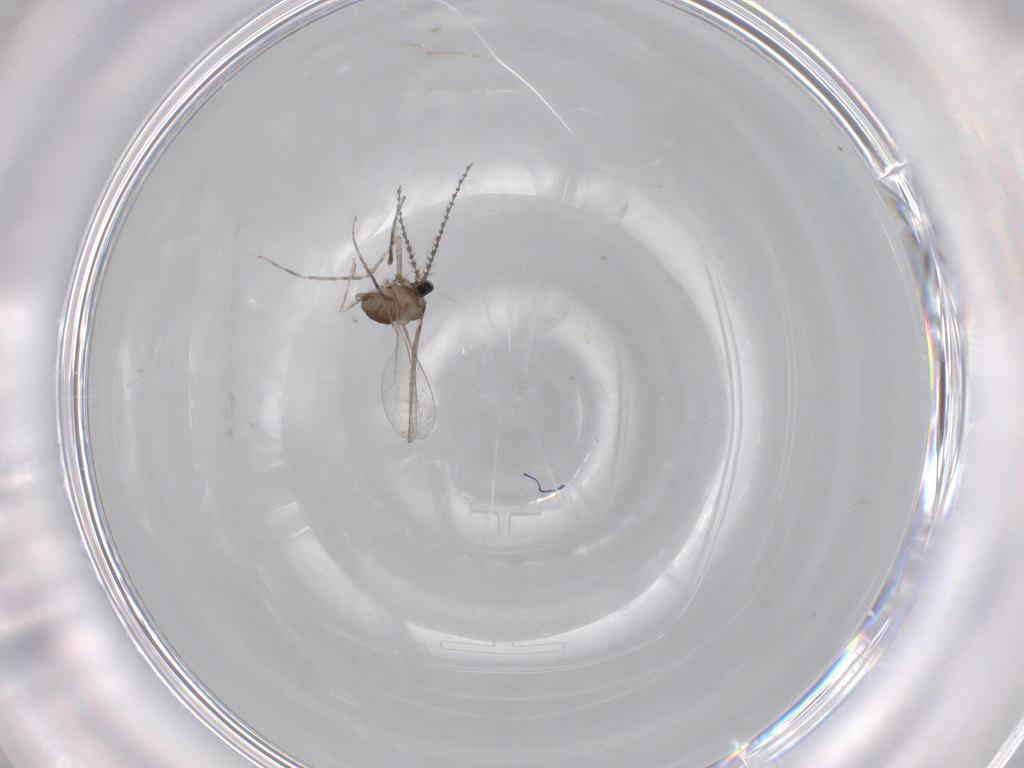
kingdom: Animalia
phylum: Arthropoda
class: Insecta
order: Diptera
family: Cecidomyiidae
